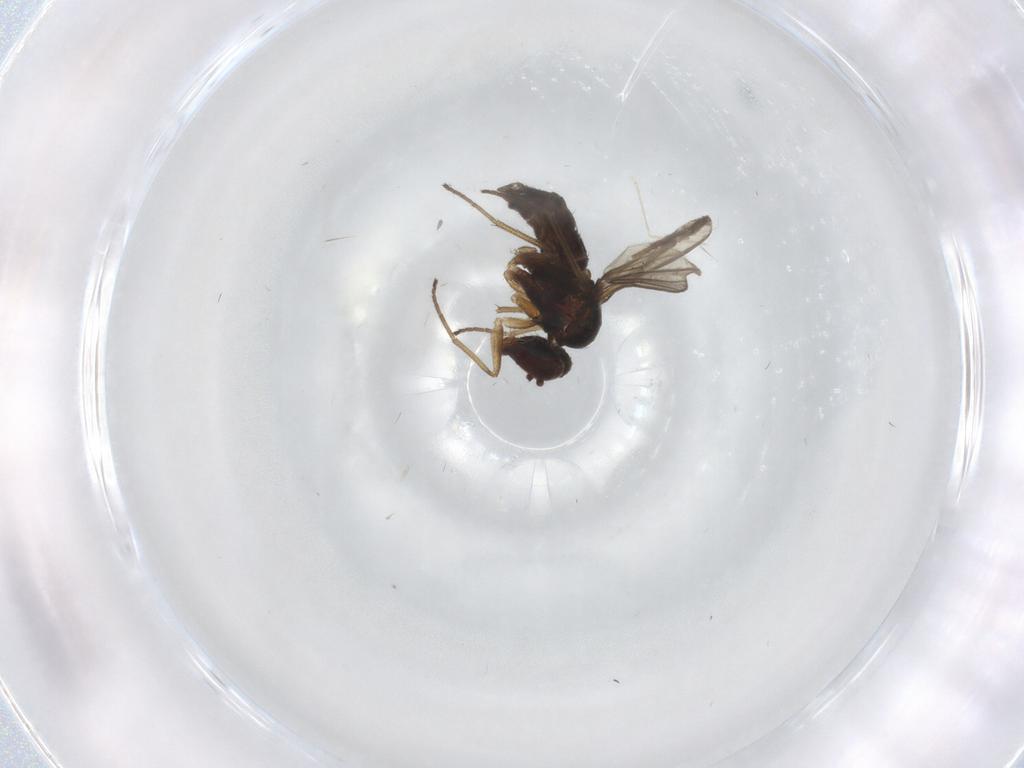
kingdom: Animalia
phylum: Arthropoda
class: Insecta
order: Diptera
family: Dolichopodidae
